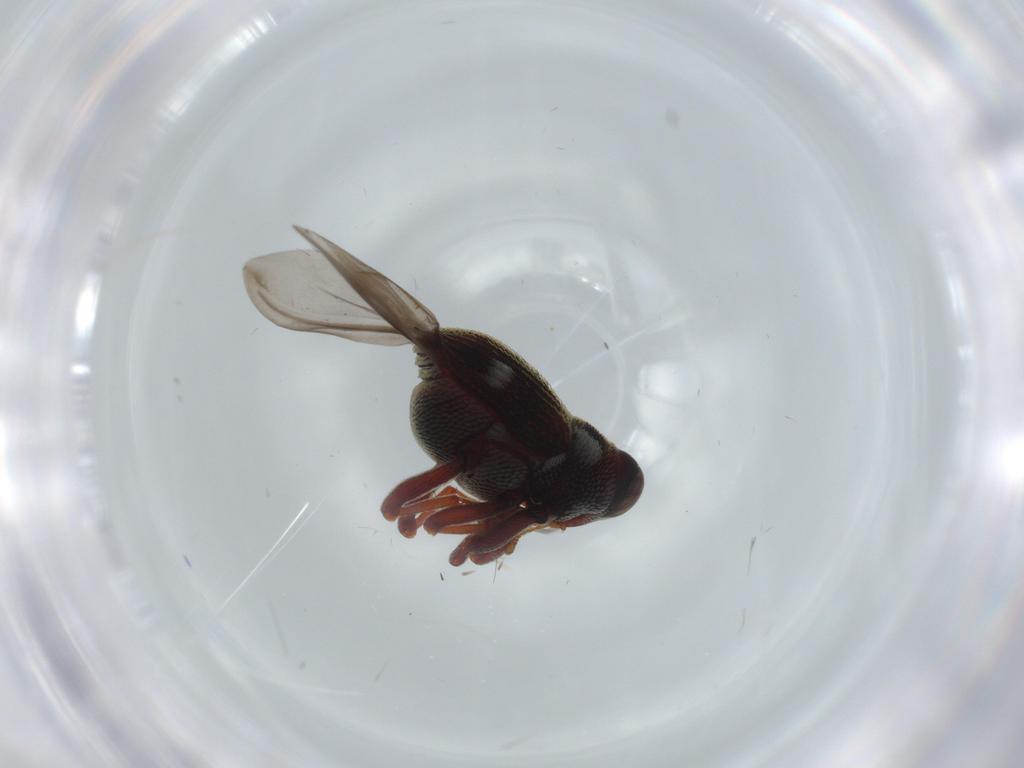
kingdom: Animalia
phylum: Arthropoda
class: Insecta
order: Coleoptera
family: Curculionidae
